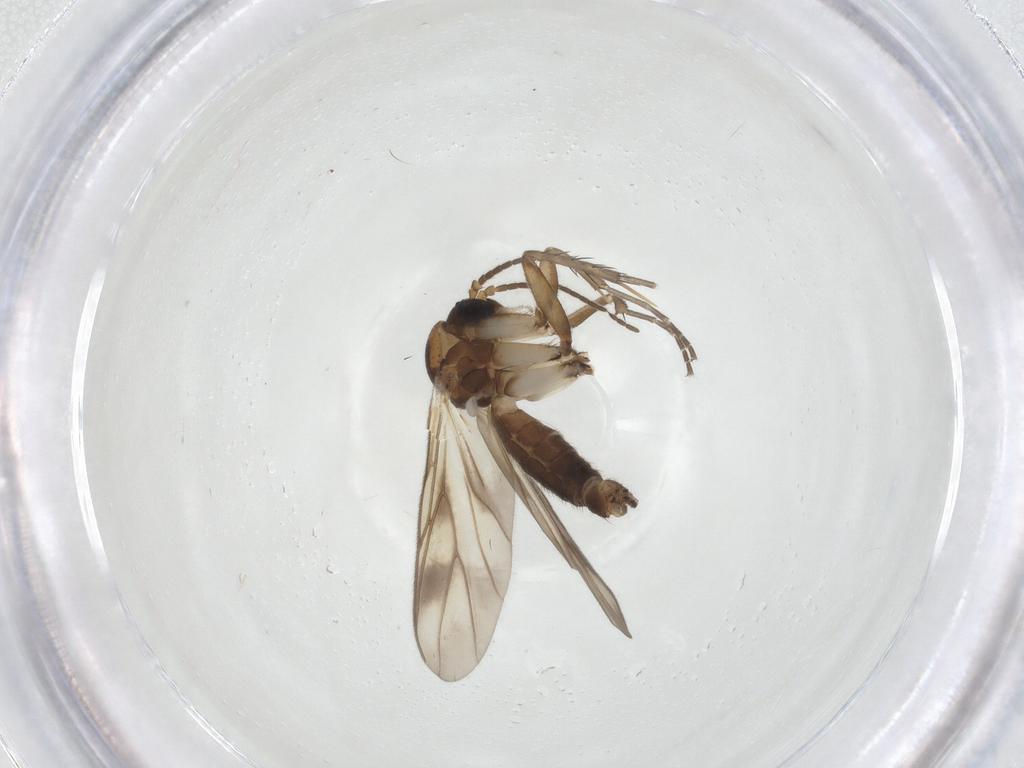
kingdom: Animalia
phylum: Arthropoda
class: Insecta
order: Diptera
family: Mycetophilidae
